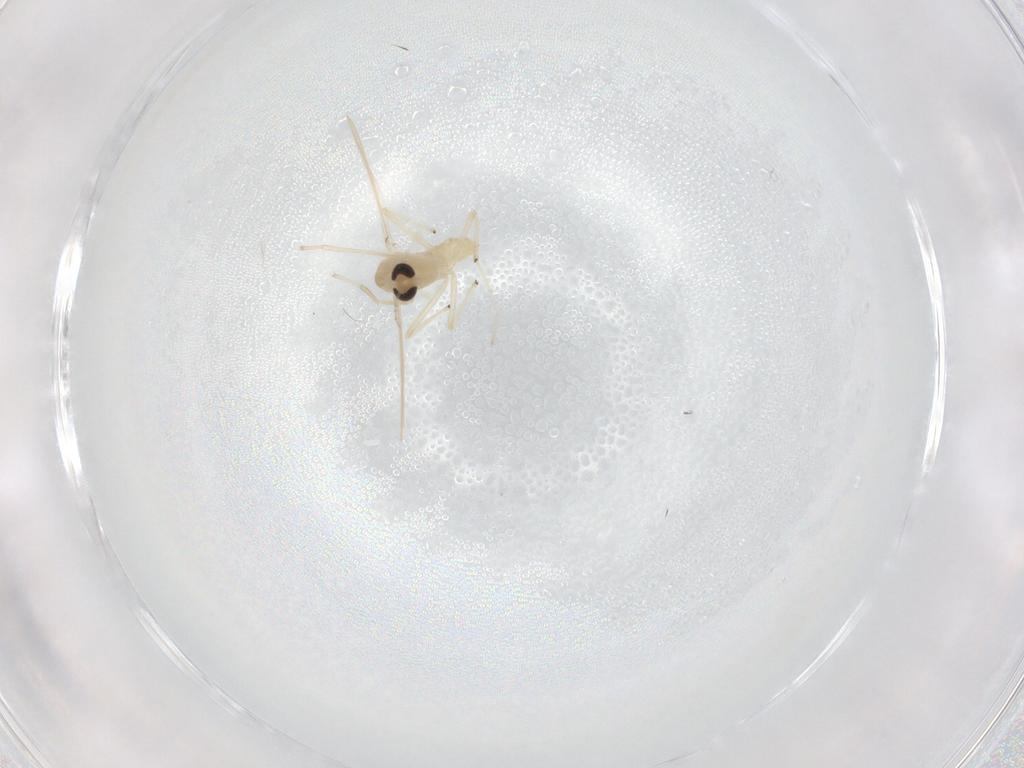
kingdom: Animalia
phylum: Arthropoda
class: Insecta
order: Diptera
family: Chironomidae
